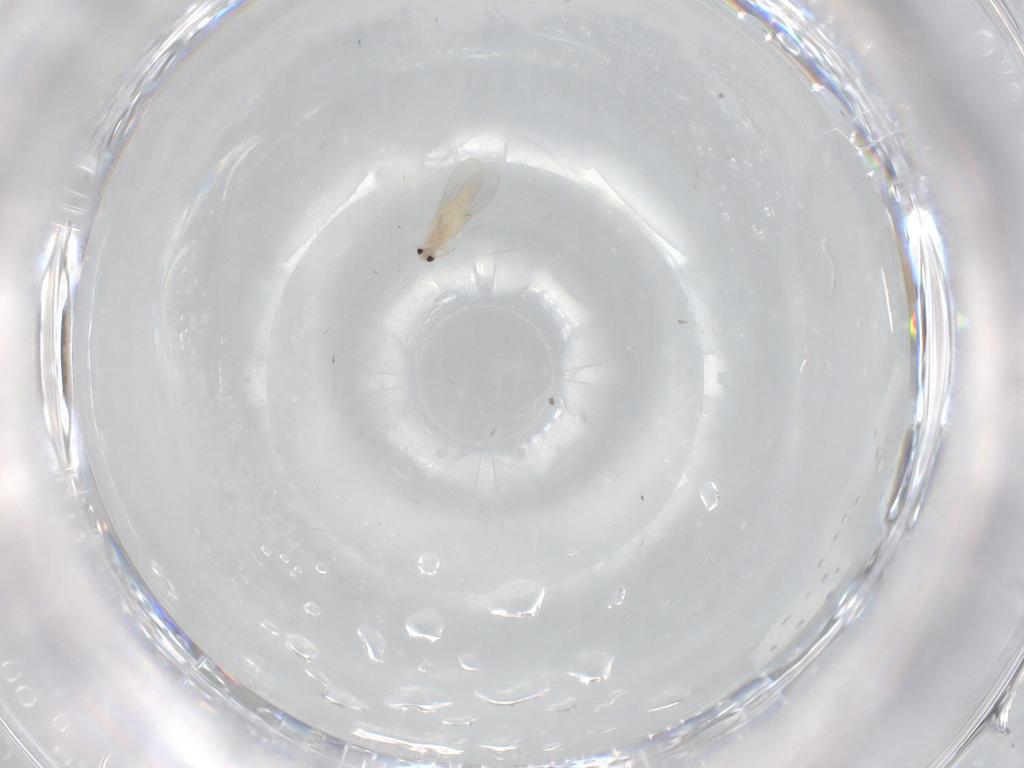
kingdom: Animalia
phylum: Arthropoda
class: Insecta
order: Diptera
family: Cecidomyiidae
